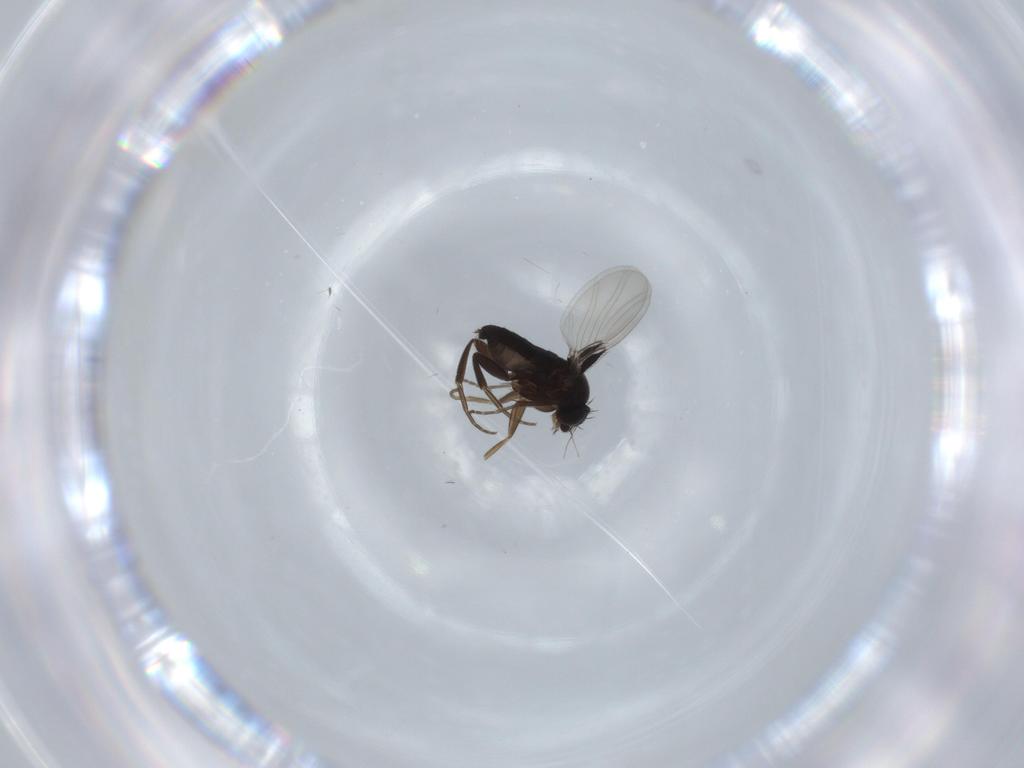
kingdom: Animalia
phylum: Arthropoda
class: Insecta
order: Diptera
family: Phoridae
